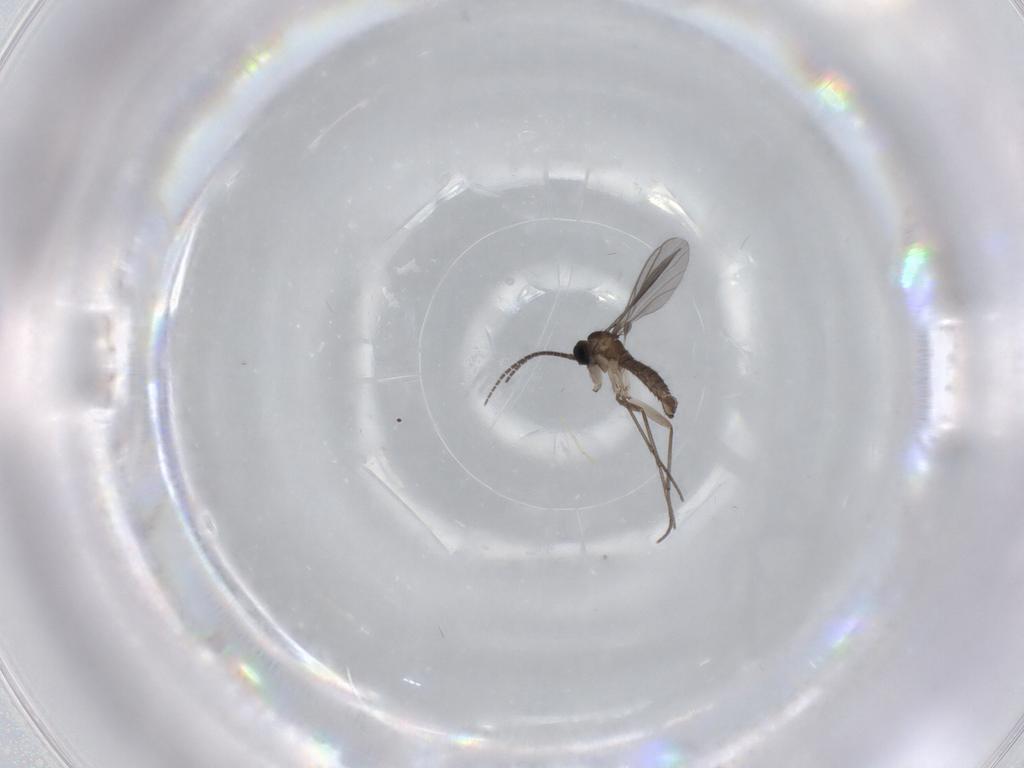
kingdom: Animalia
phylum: Arthropoda
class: Insecta
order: Diptera
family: Sciaridae
